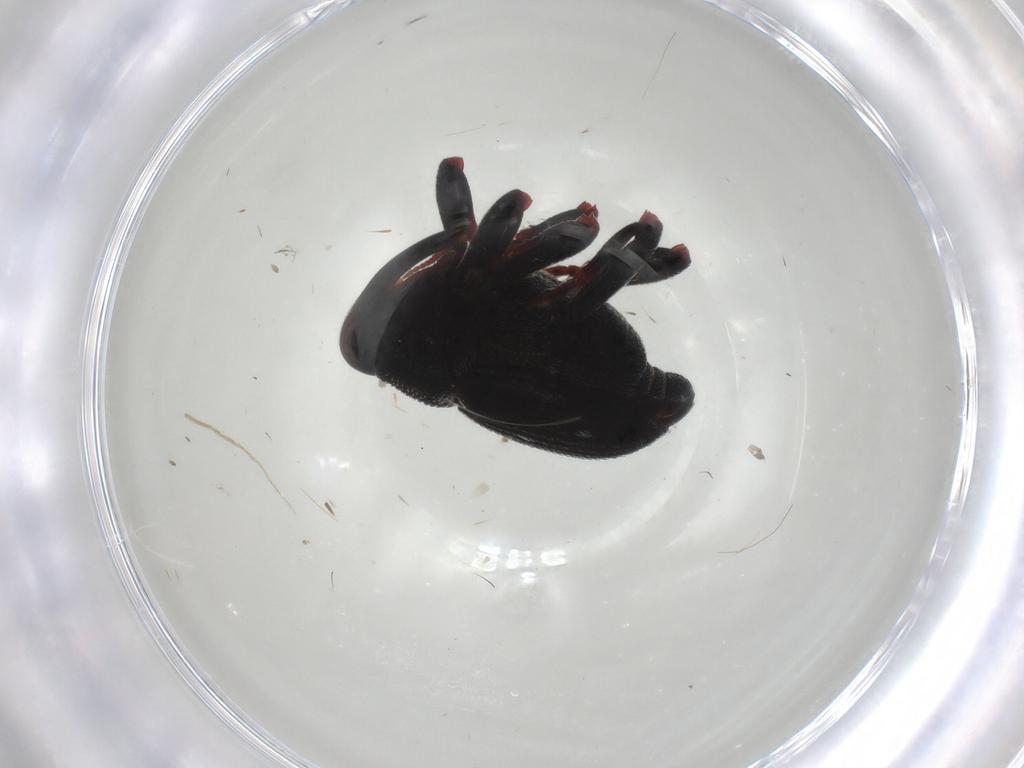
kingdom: Animalia
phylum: Arthropoda
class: Insecta
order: Coleoptera
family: Curculionidae
